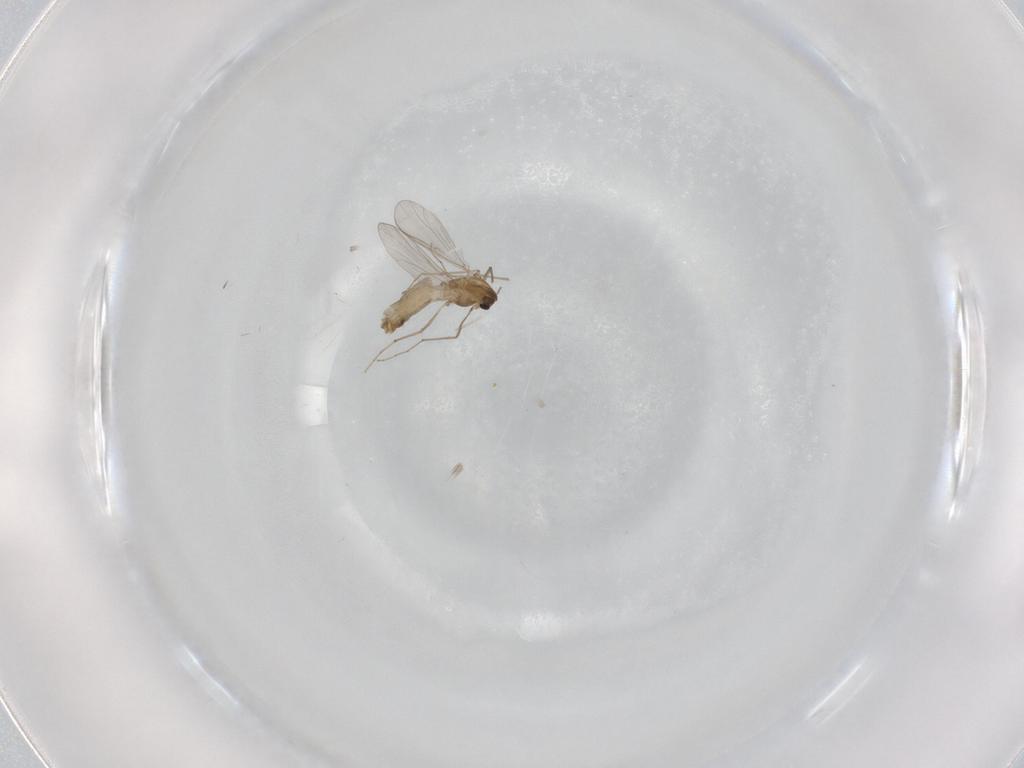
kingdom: Animalia
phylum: Arthropoda
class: Insecta
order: Diptera
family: Chironomidae
